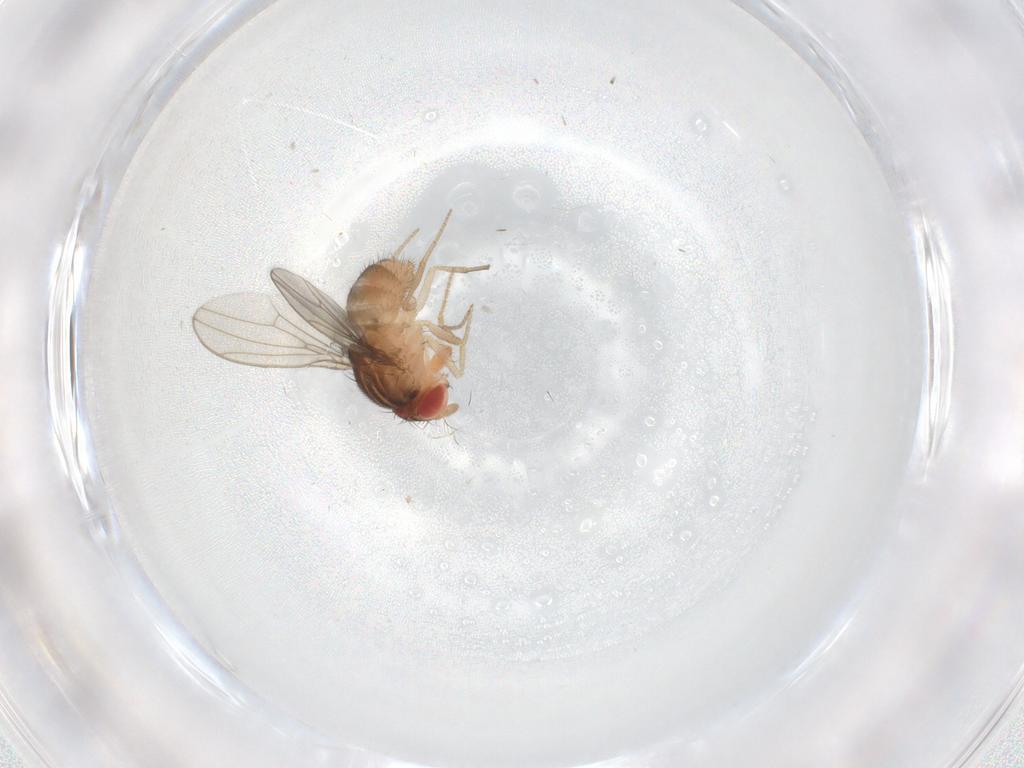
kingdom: Animalia
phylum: Arthropoda
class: Insecta
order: Diptera
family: Drosophilidae
